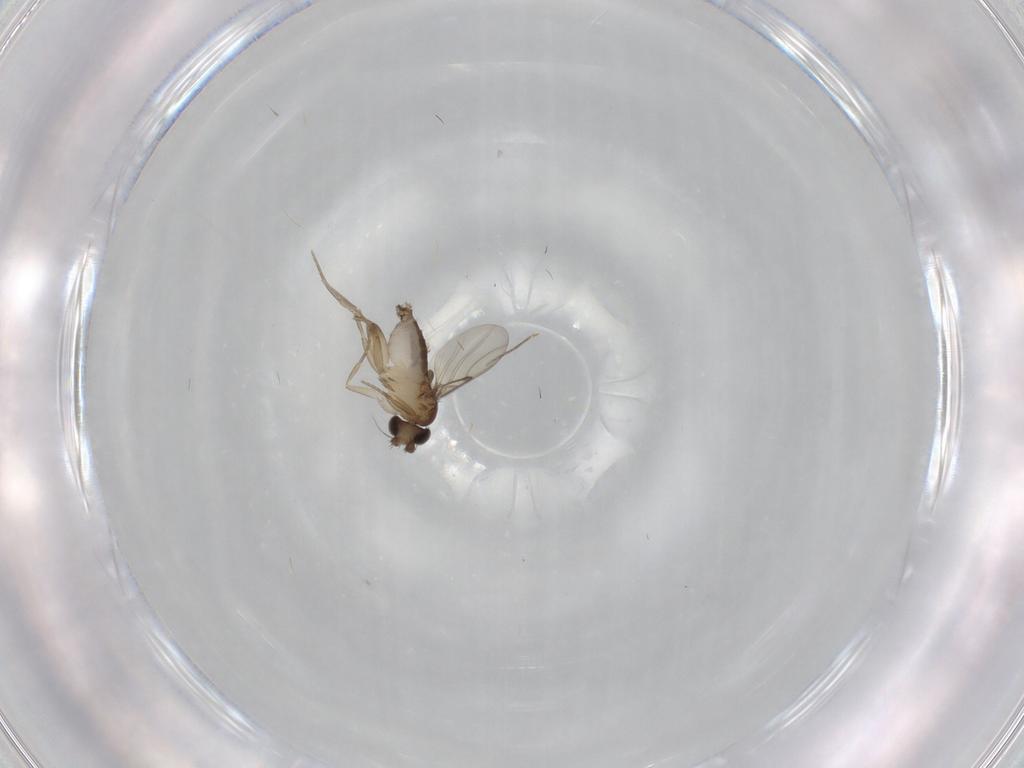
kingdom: Animalia
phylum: Arthropoda
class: Insecta
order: Diptera
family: Phoridae
